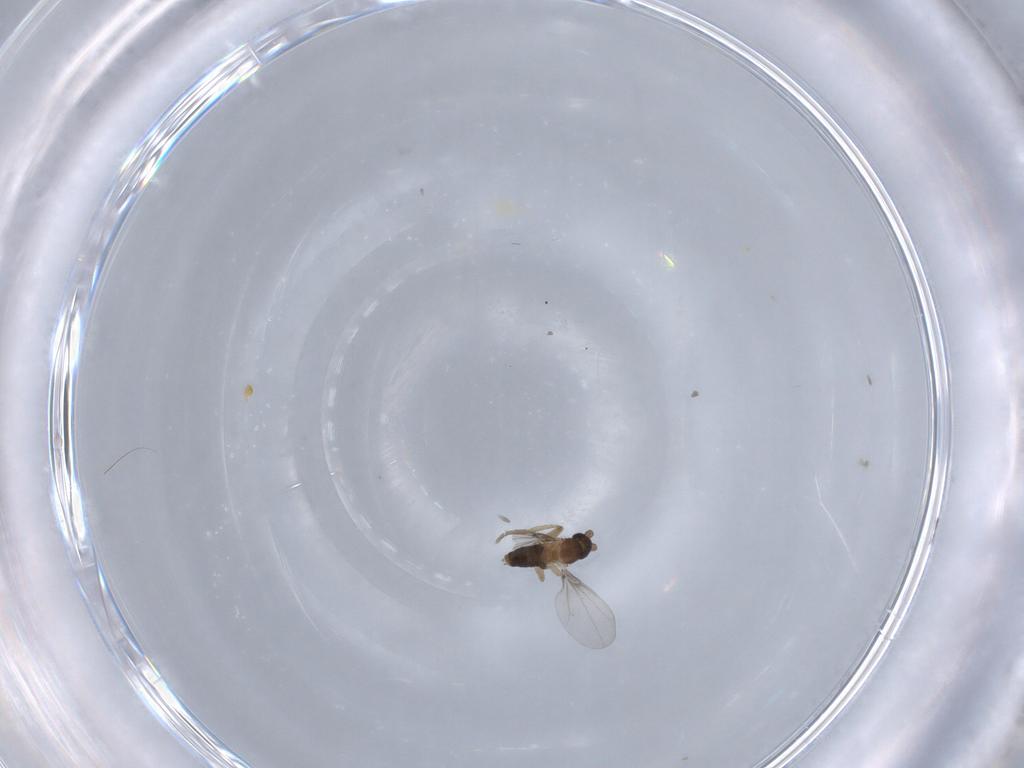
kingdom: Animalia
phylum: Arthropoda
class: Insecta
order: Diptera
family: Phoridae
